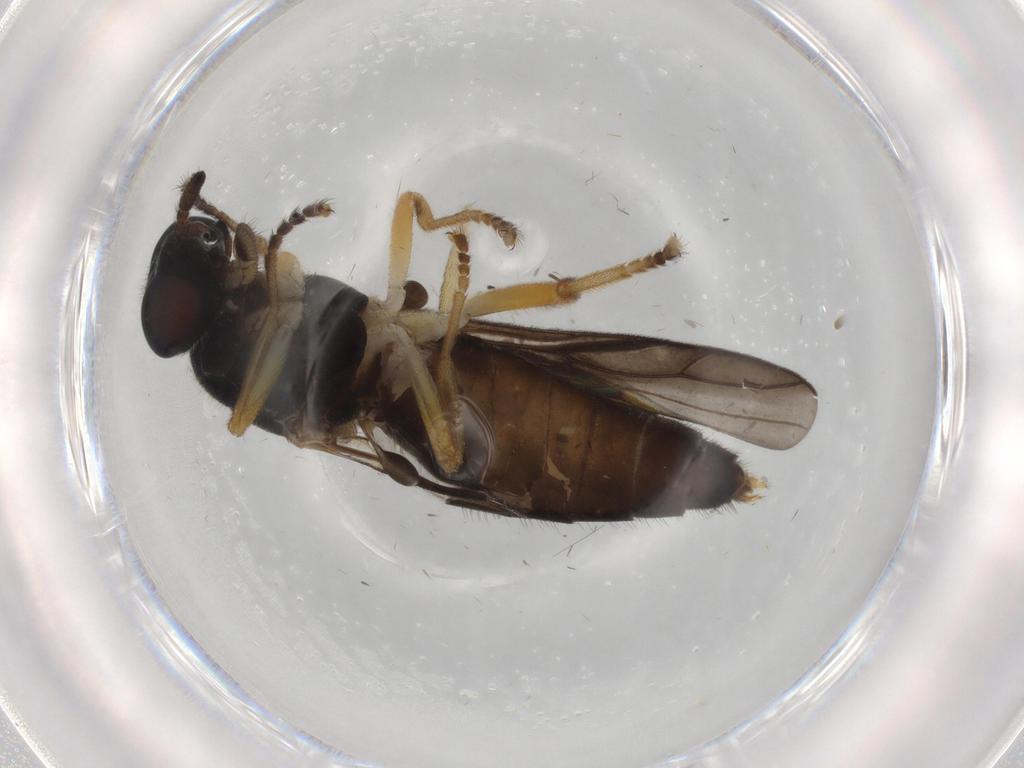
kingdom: Animalia
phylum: Arthropoda
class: Insecta
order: Diptera
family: Stratiomyidae
